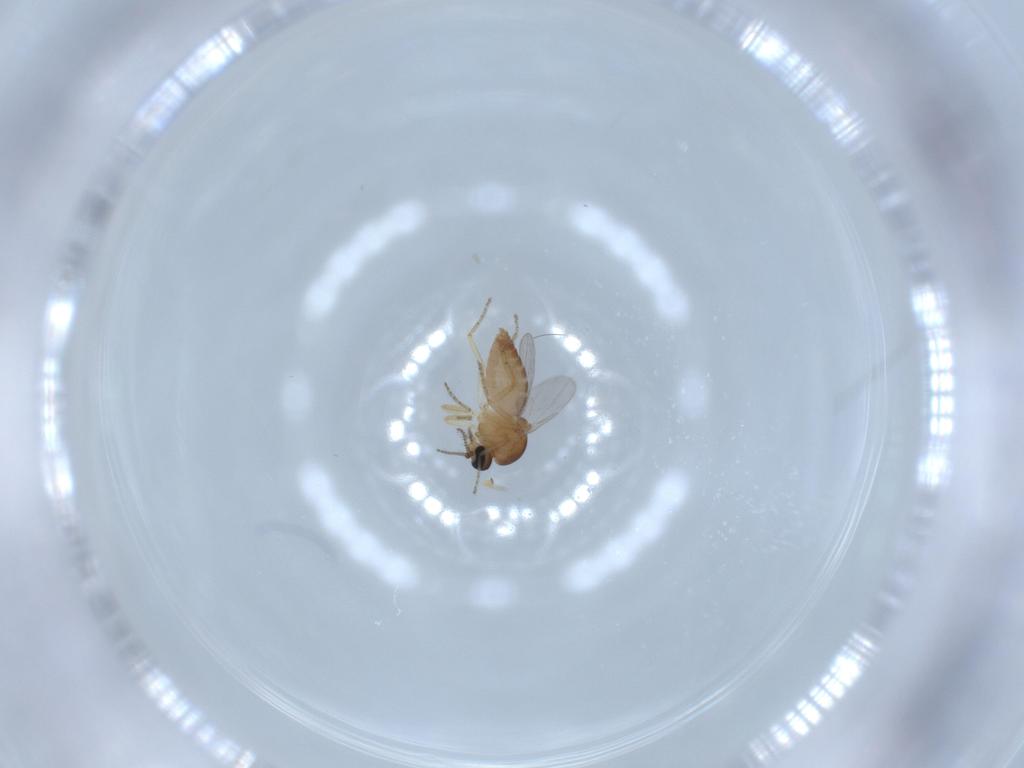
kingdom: Animalia
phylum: Arthropoda
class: Insecta
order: Diptera
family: Ceratopogonidae
